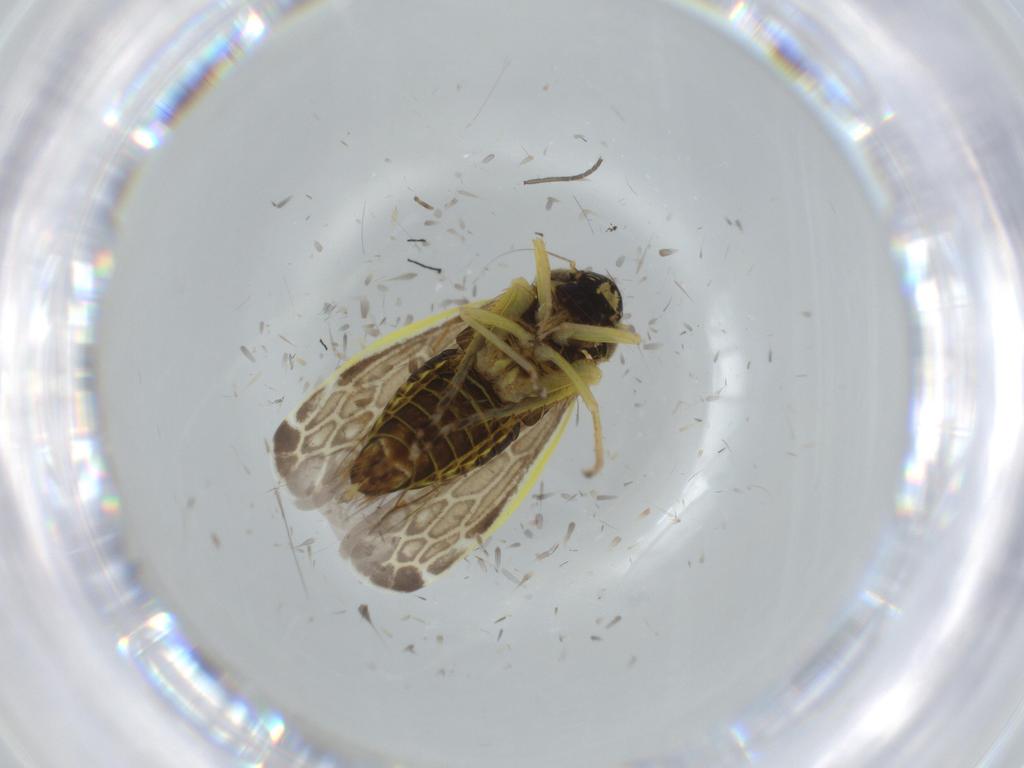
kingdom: Animalia
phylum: Arthropoda
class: Insecta
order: Hemiptera
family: Cicadellidae
